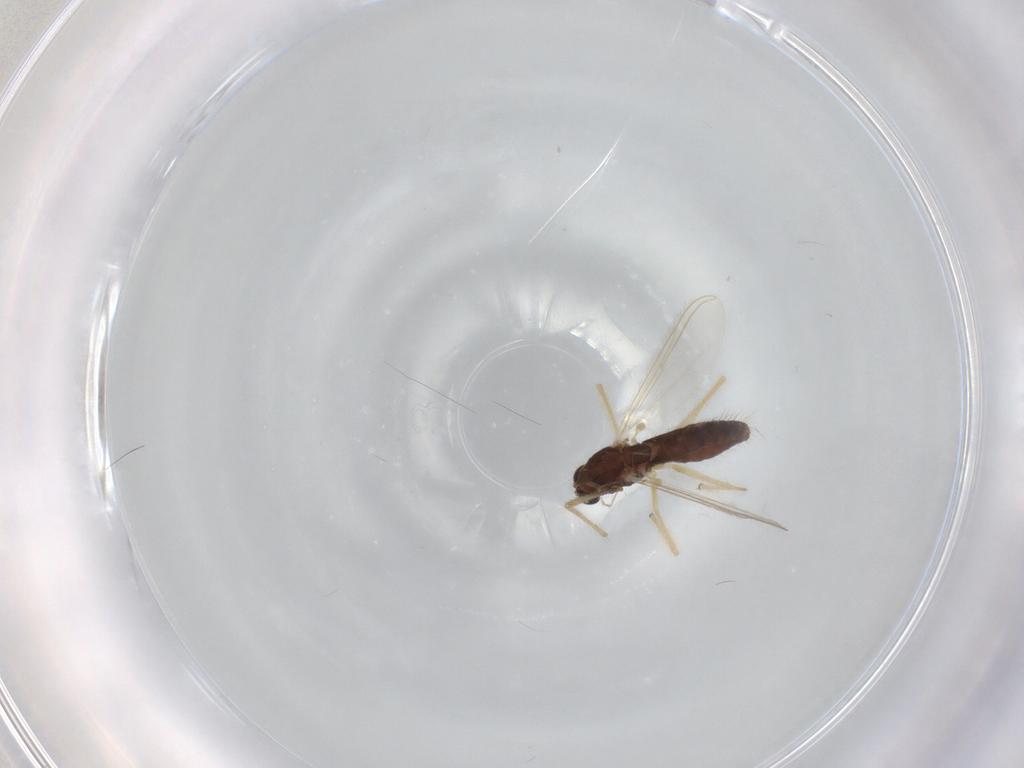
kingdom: Animalia
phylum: Arthropoda
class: Insecta
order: Diptera
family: Chironomidae
